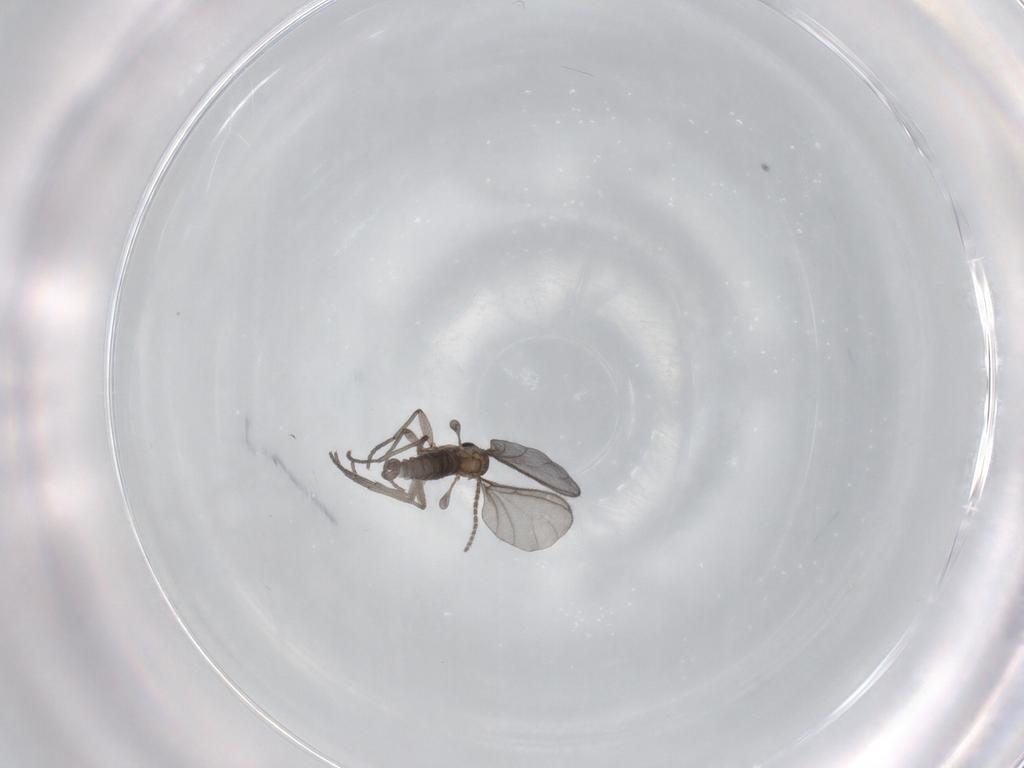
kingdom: Animalia
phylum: Arthropoda
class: Insecta
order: Diptera
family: Sciaridae
